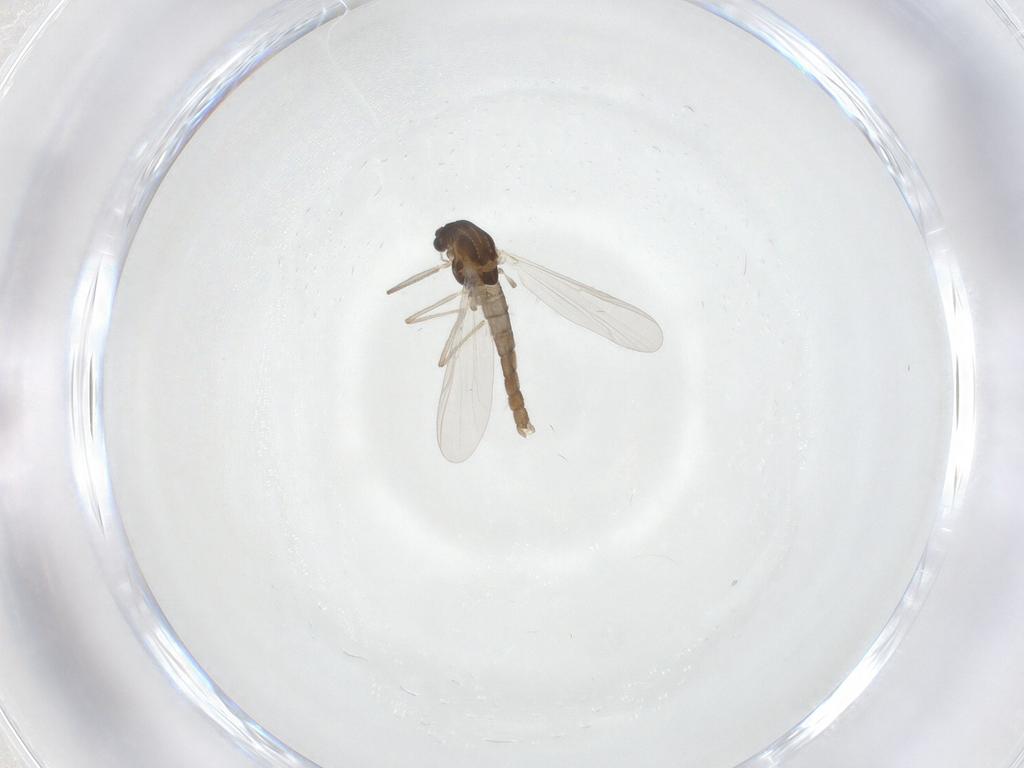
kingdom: Animalia
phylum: Arthropoda
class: Insecta
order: Diptera
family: Chironomidae
